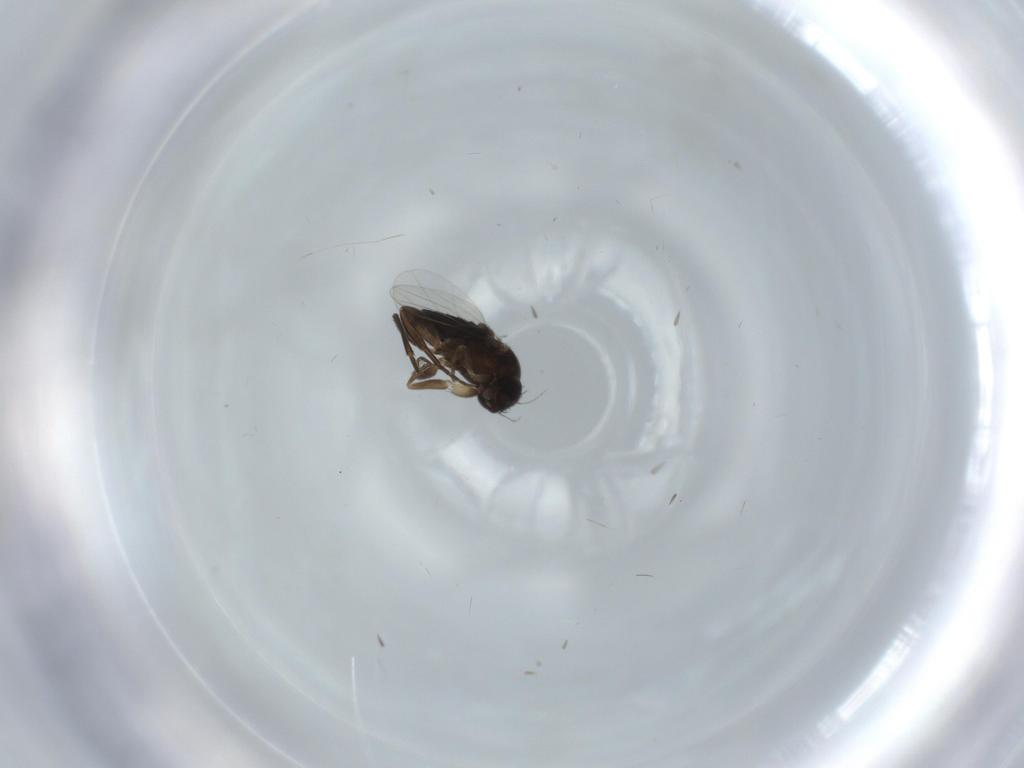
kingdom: Animalia
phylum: Arthropoda
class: Insecta
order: Diptera
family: Phoridae
